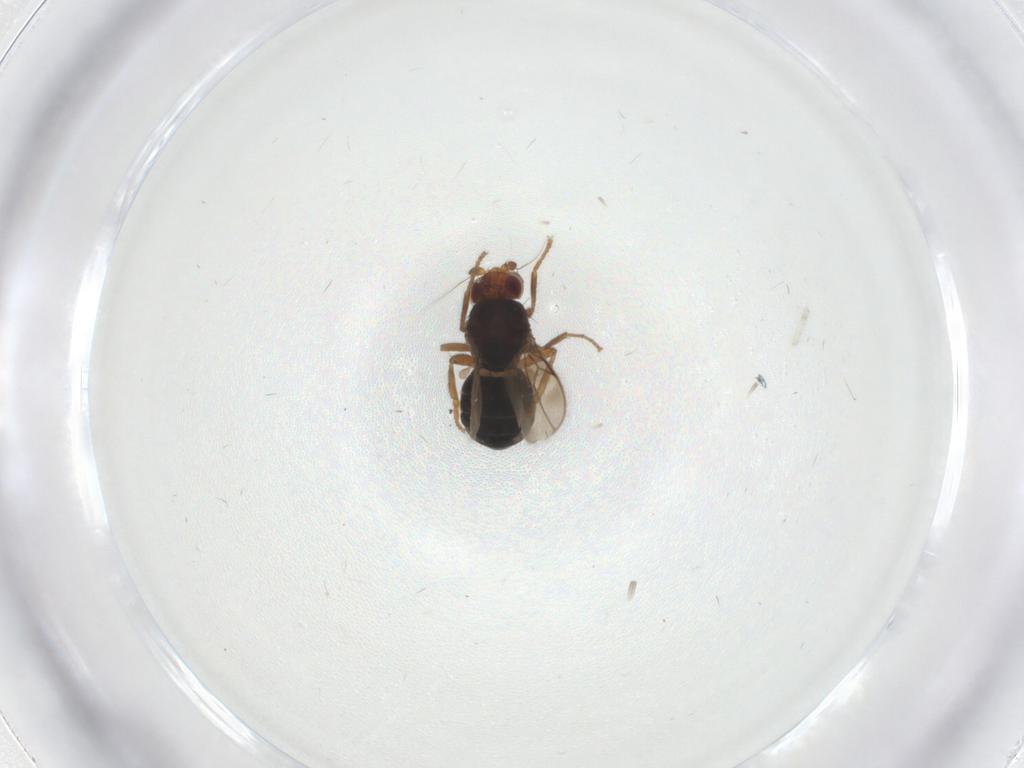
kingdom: Animalia
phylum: Arthropoda
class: Insecta
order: Diptera
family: Sphaeroceridae
